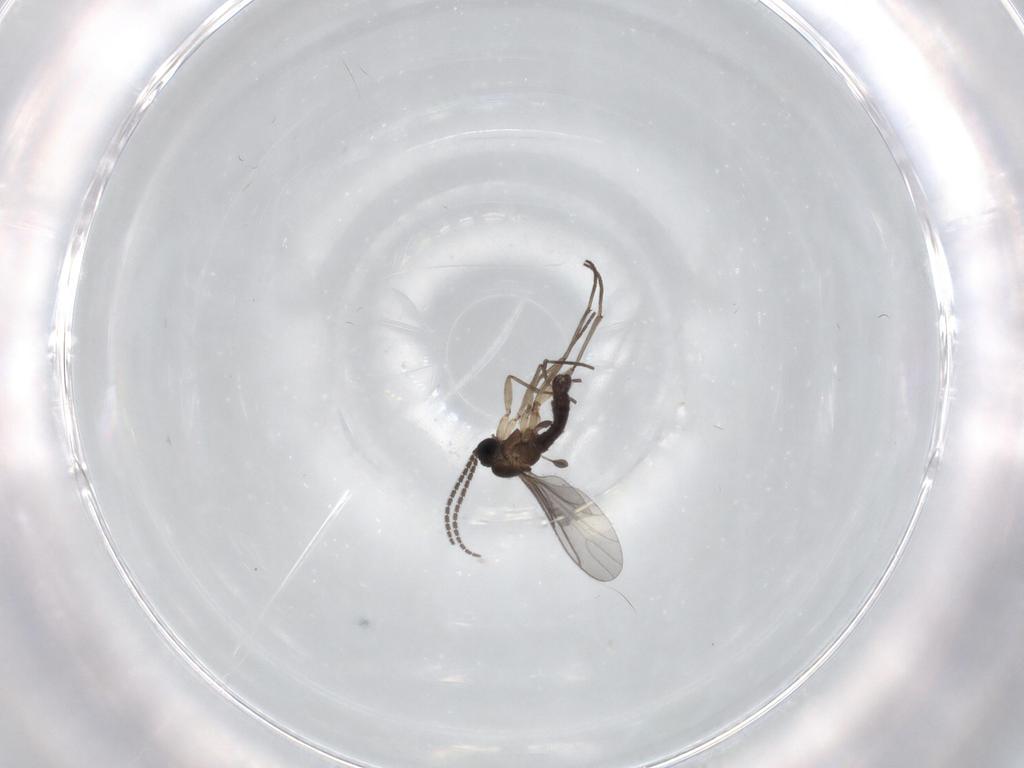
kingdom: Animalia
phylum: Arthropoda
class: Insecta
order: Diptera
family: Sciaridae
